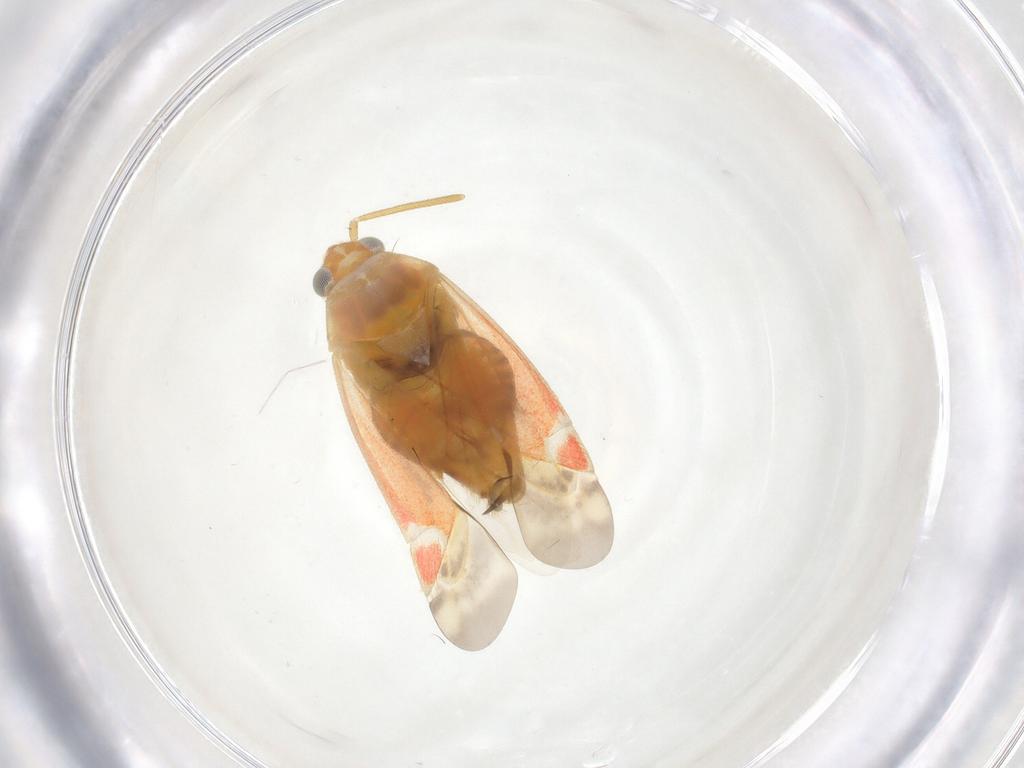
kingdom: Animalia
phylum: Arthropoda
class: Insecta
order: Hemiptera
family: Miridae
